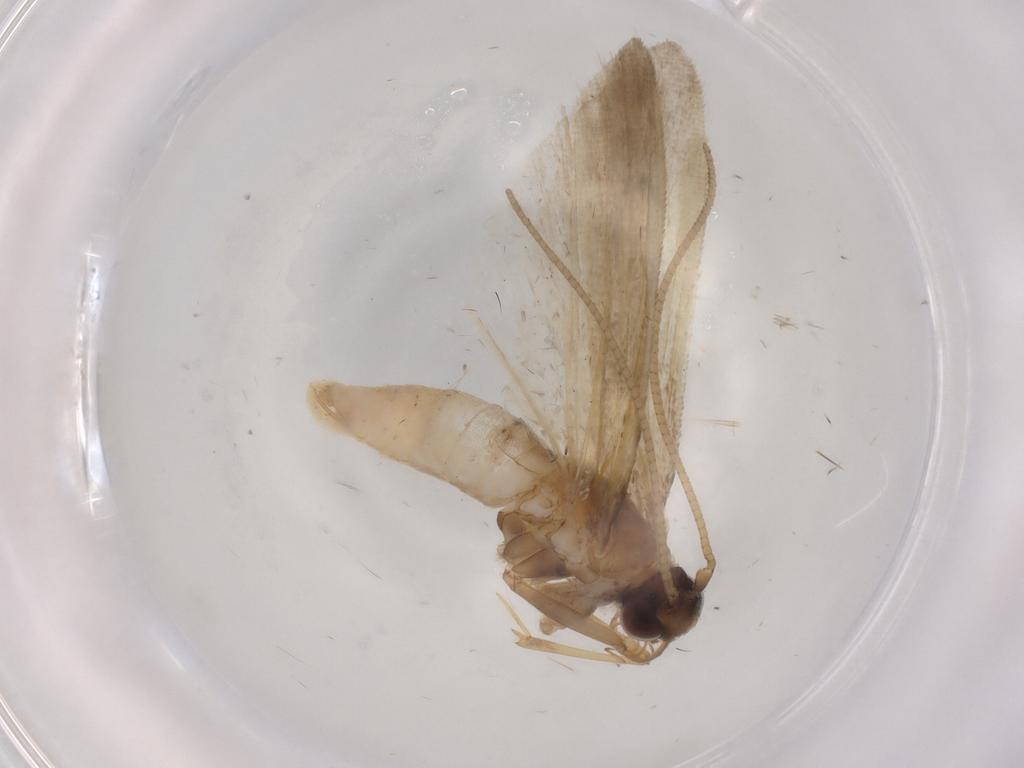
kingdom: Animalia
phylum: Arthropoda
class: Insecta
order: Lepidoptera
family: Noctuidae
